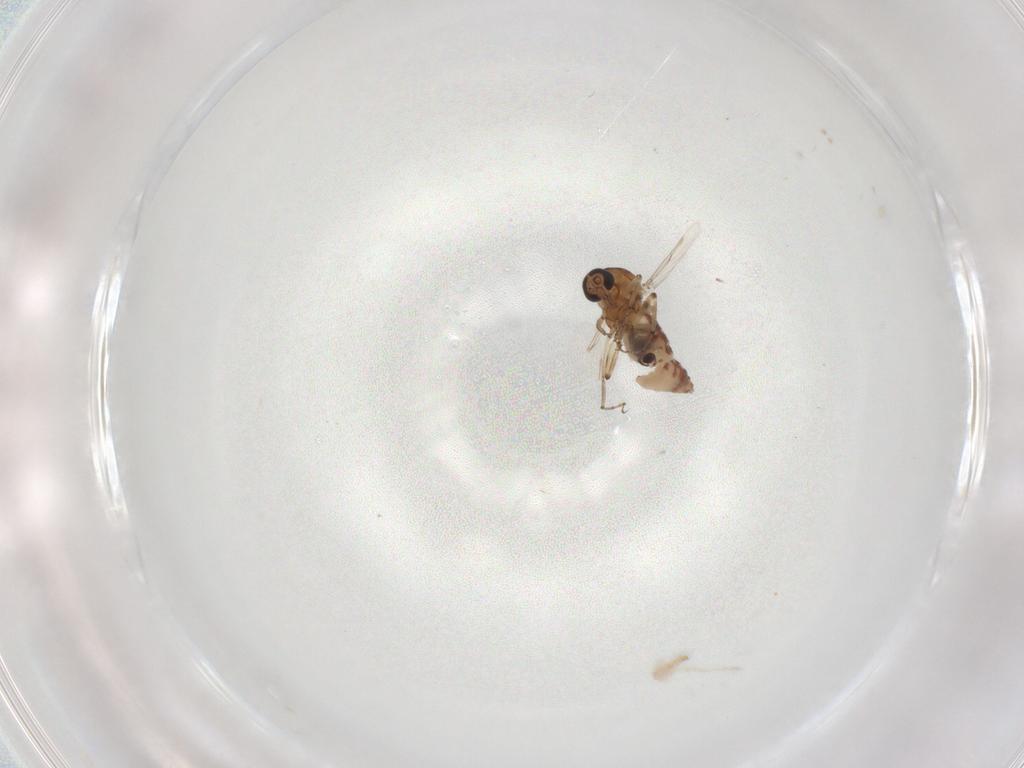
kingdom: Animalia
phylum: Arthropoda
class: Insecta
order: Diptera
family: Ceratopogonidae
